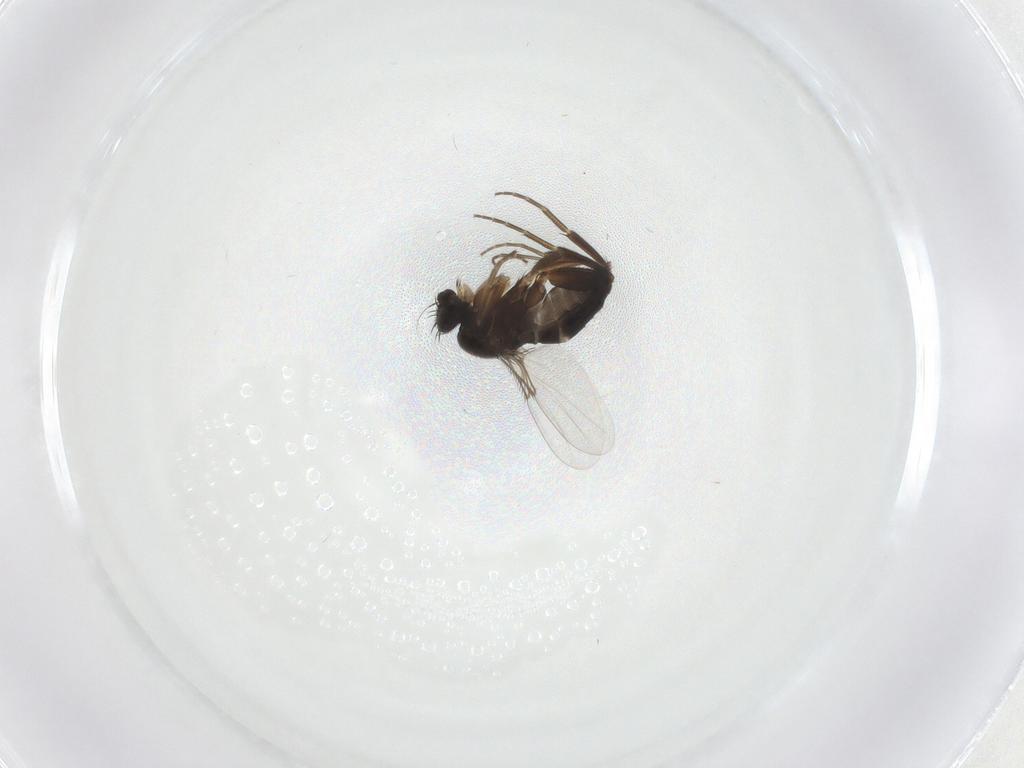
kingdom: Animalia
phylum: Arthropoda
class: Insecta
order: Diptera
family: Phoridae
